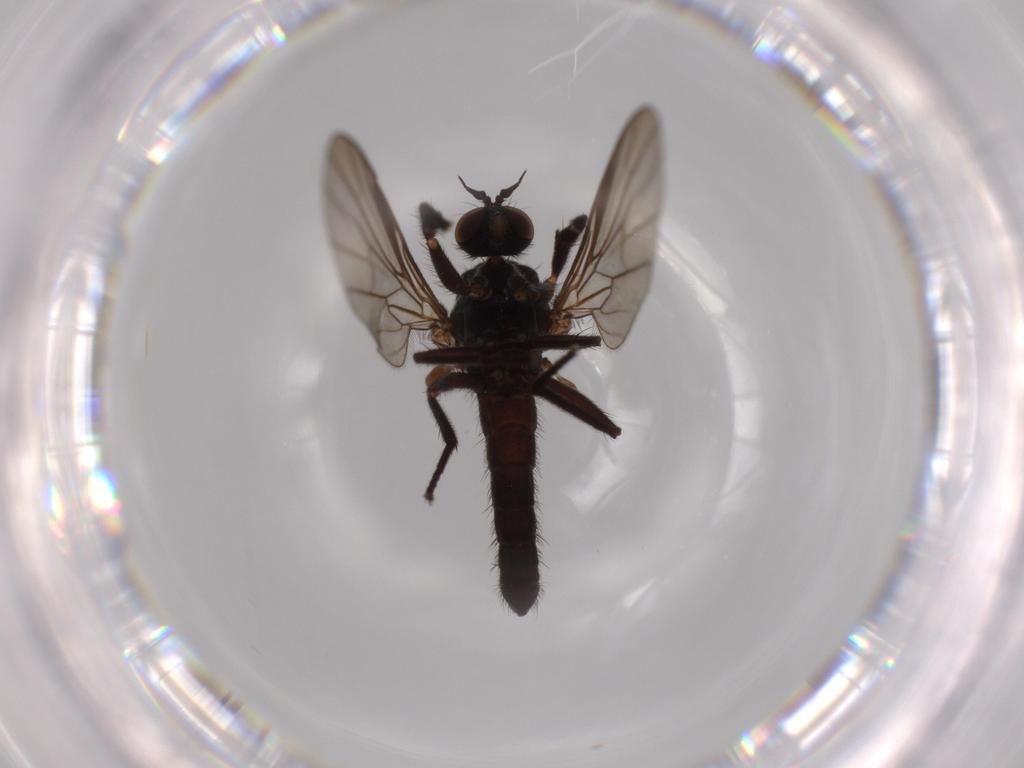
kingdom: Animalia
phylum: Arthropoda
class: Insecta
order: Diptera
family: Empididae
